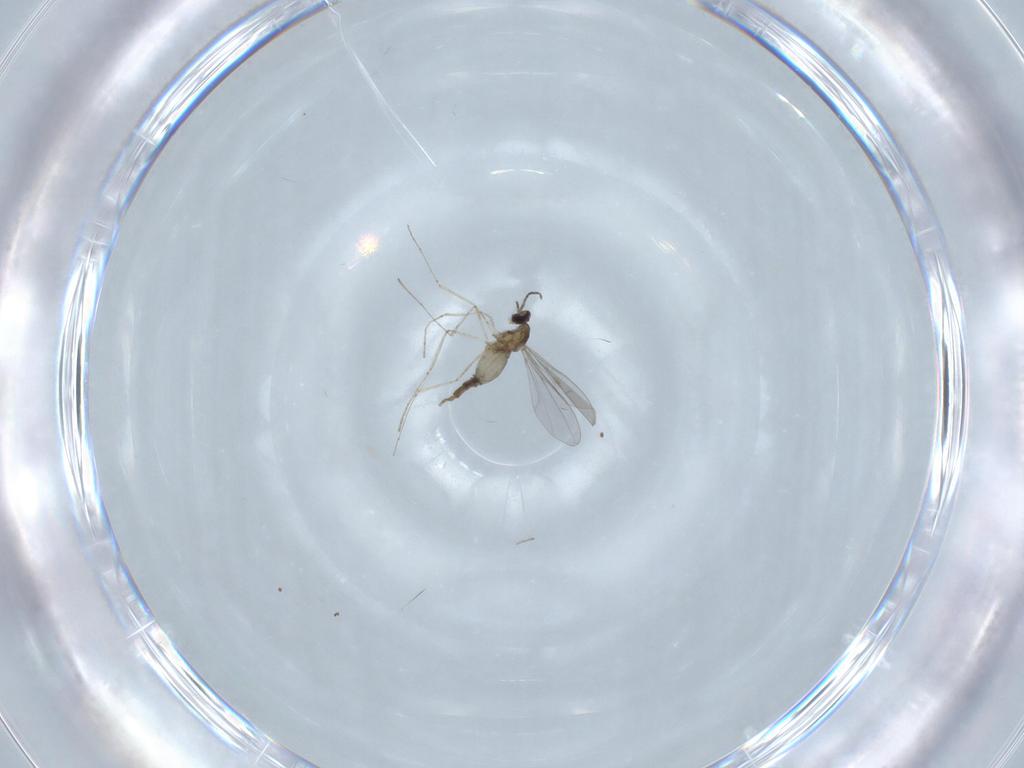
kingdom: Animalia
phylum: Arthropoda
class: Insecta
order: Diptera
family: Cecidomyiidae
